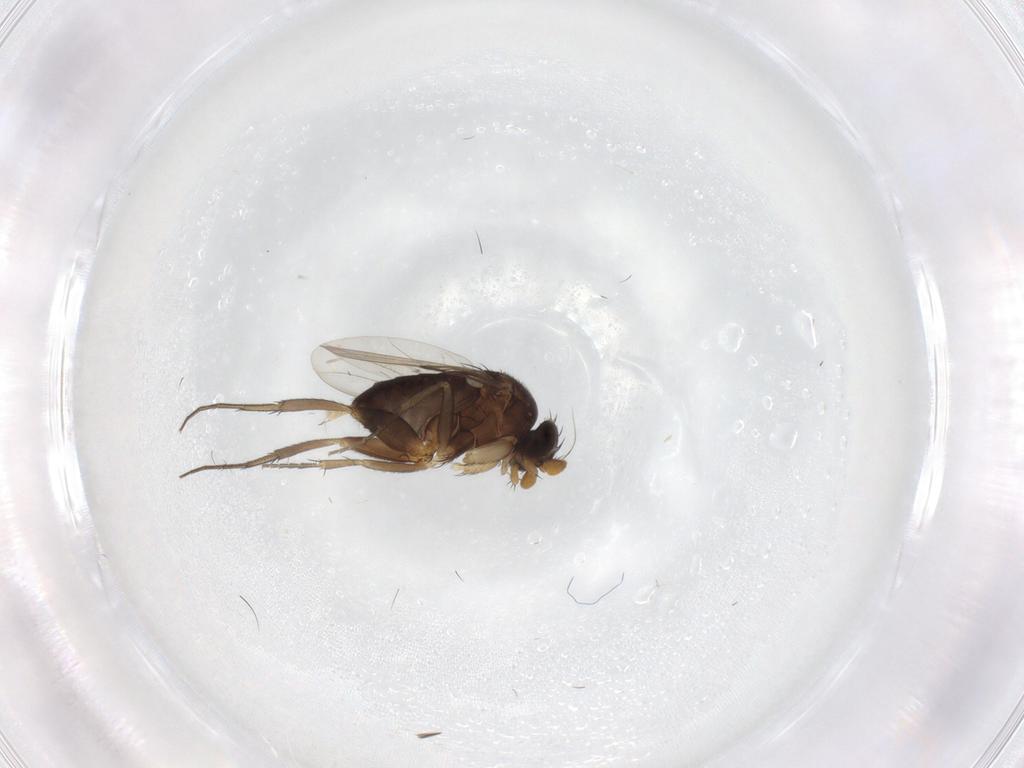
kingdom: Animalia
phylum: Arthropoda
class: Insecta
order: Diptera
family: Phoridae
